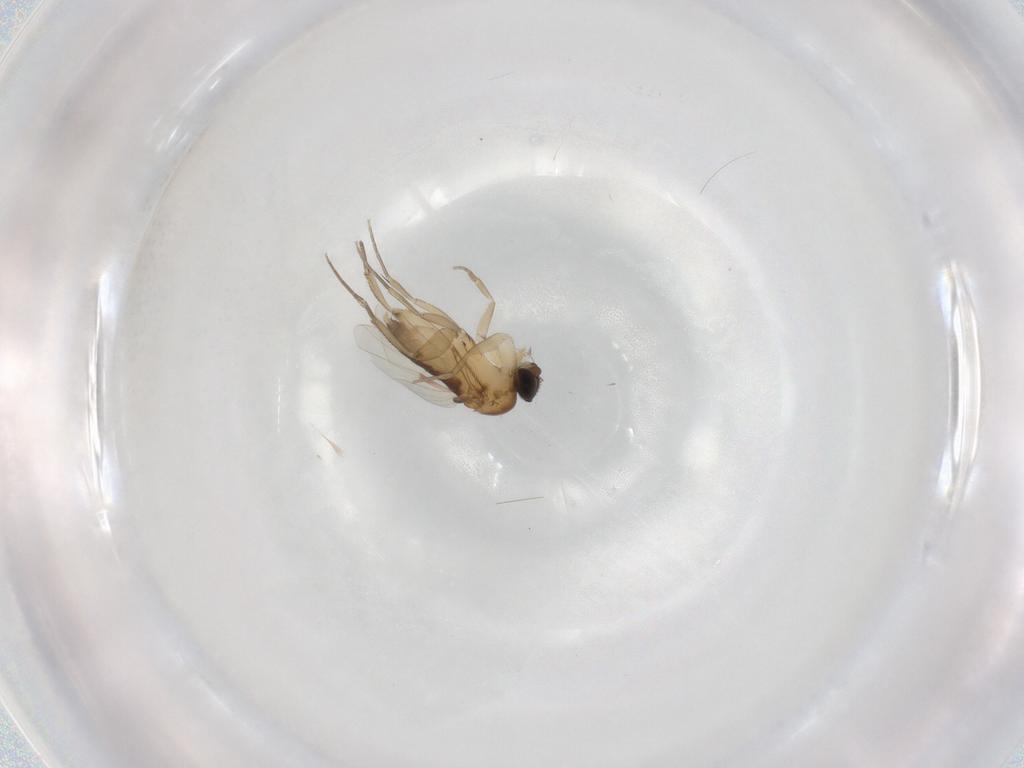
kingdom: Animalia
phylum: Arthropoda
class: Insecta
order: Diptera
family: Phoridae
